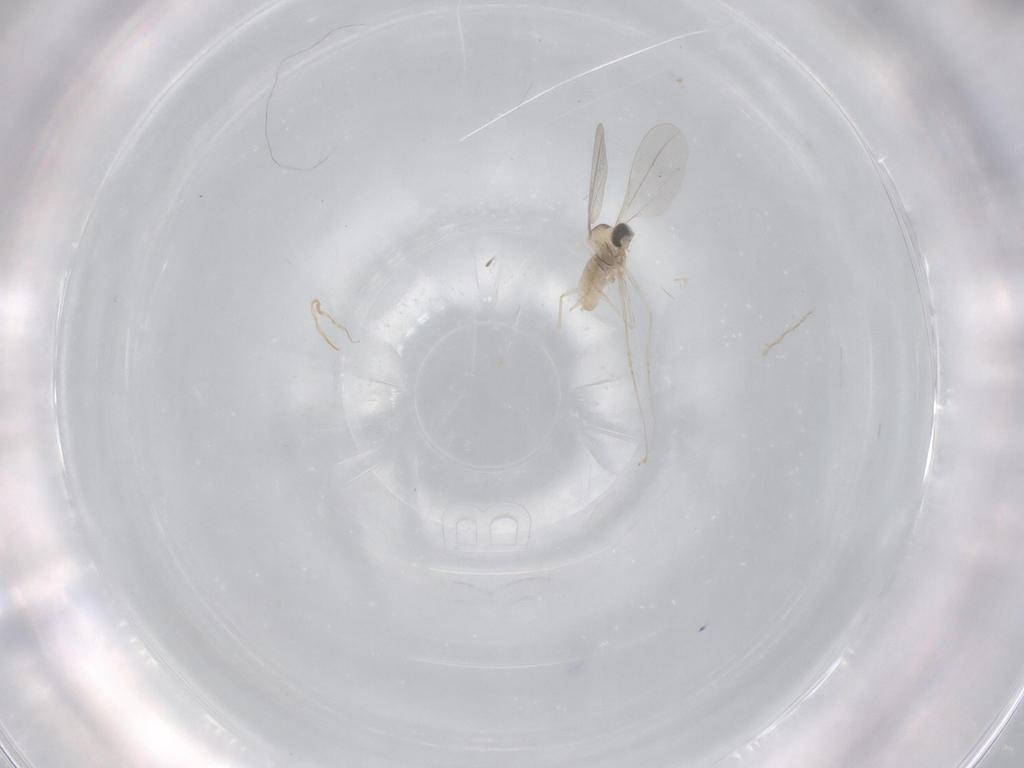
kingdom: Animalia
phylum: Arthropoda
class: Insecta
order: Diptera
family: Cecidomyiidae
